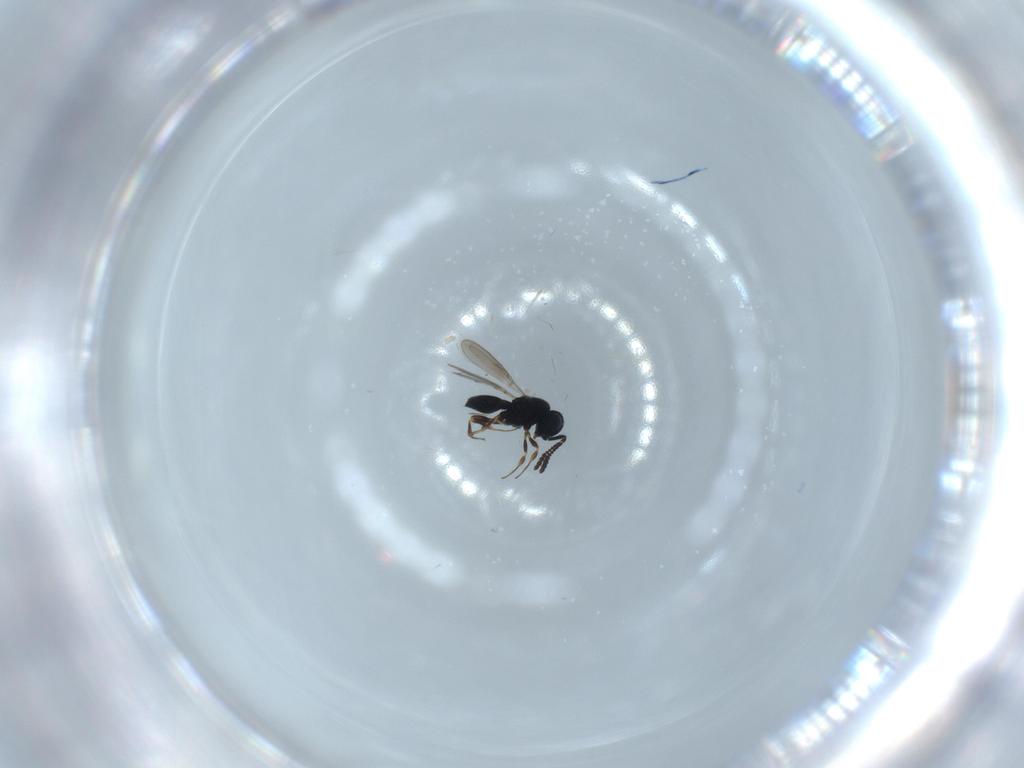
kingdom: Animalia
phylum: Arthropoda
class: Insecta
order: Hymenoptera
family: Scelionidae
